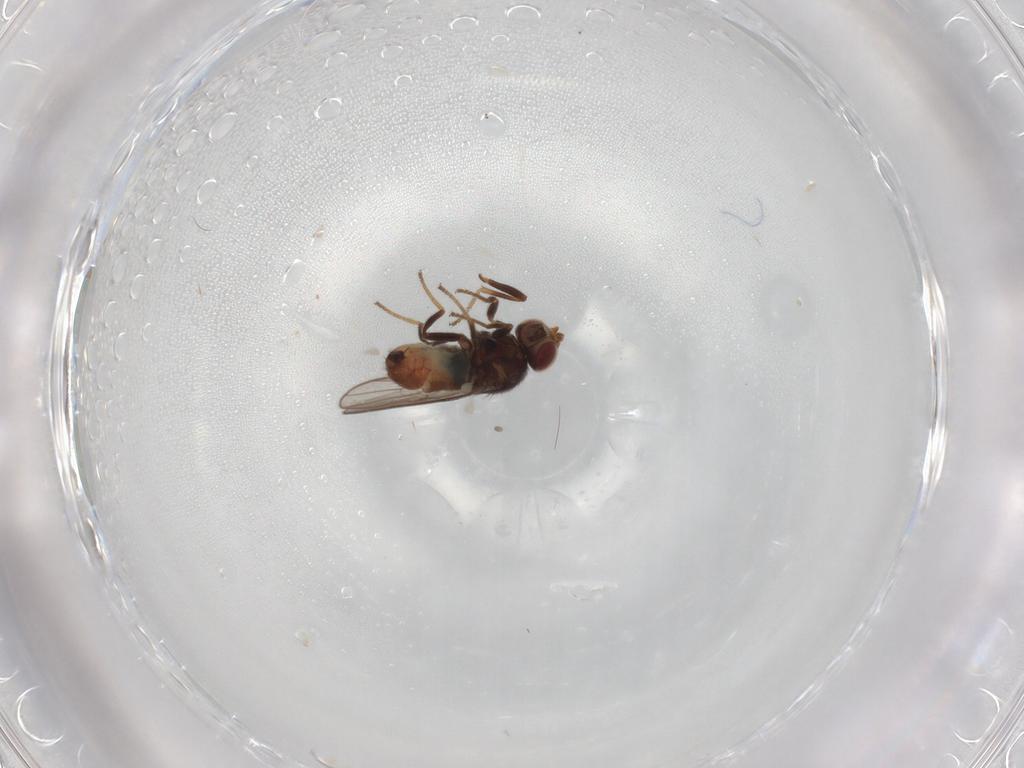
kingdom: Animalia
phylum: Arthropoda
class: Insecta
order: Diptera
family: Chloropidae
